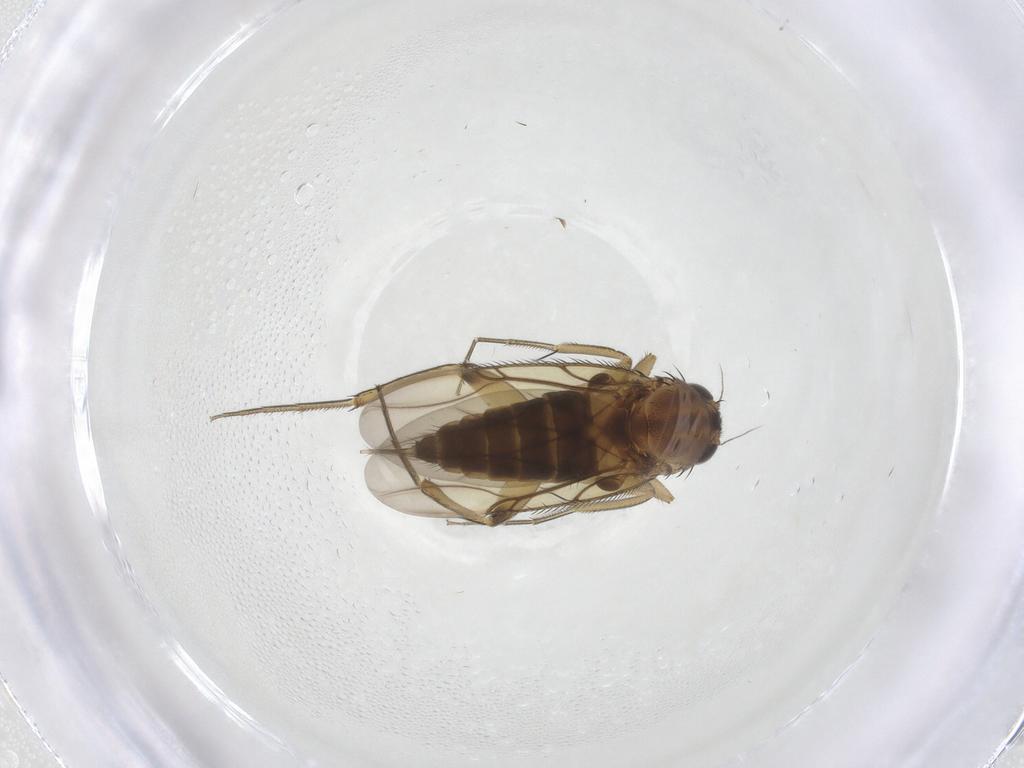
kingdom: Animalia
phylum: Arthropoda
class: Insecta
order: Diptera
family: Phoridae
